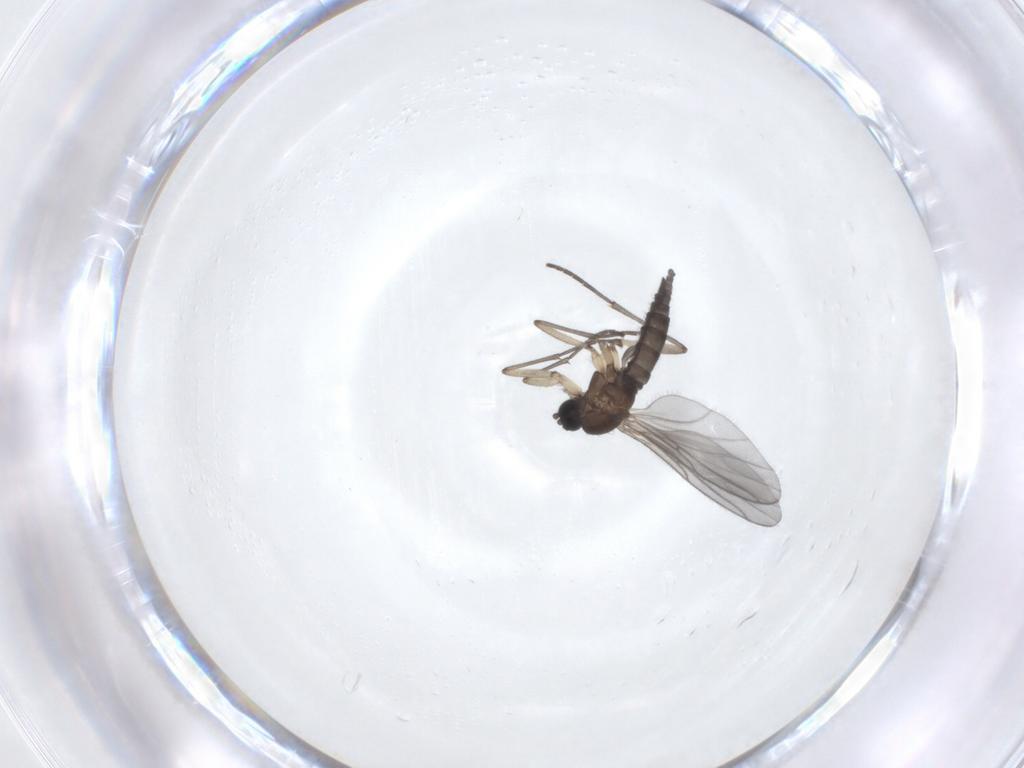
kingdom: Animalia
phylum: Arthropoda
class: Insecta
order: Diptera
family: Sciaridae
